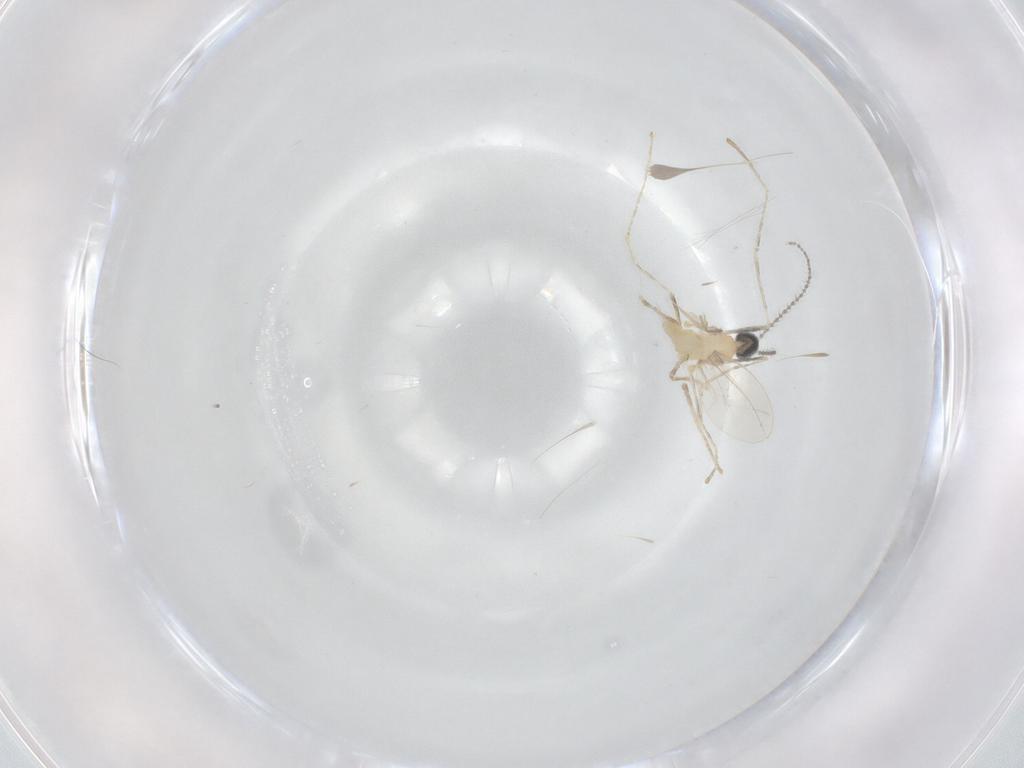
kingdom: Animalia
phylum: Arthropoda
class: Insecta
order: Diptera
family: Cecidomyiidae
